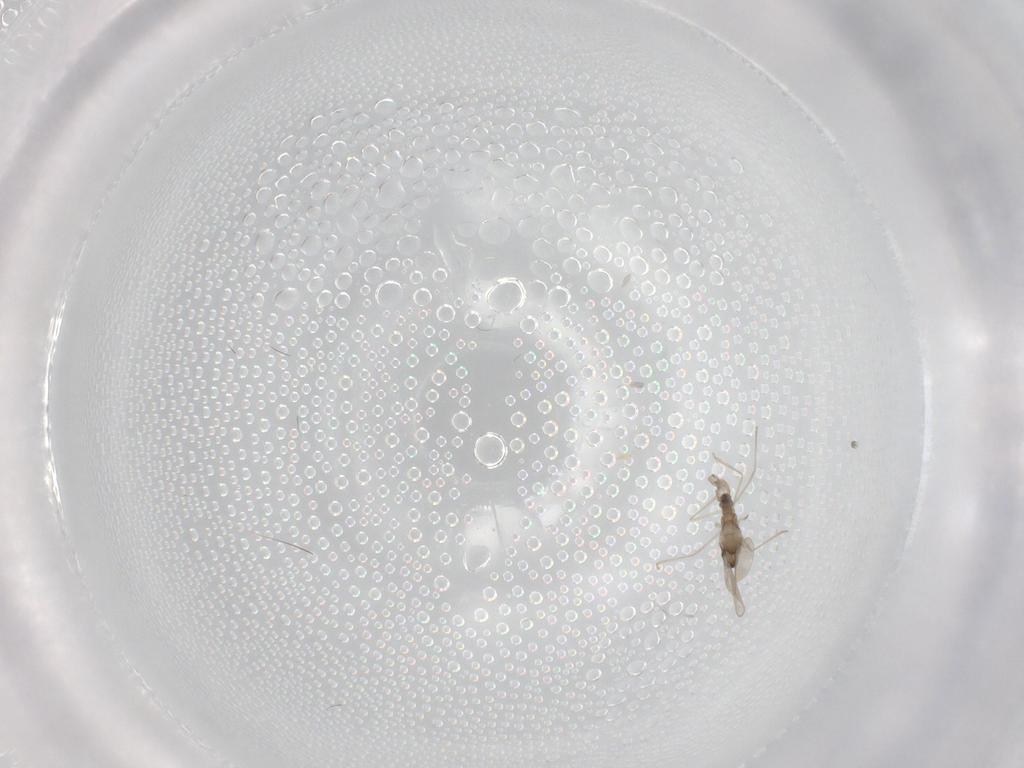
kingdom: Animalia
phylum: Arthropoda
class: Insecta
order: Diptera
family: Cecidomyiidae
